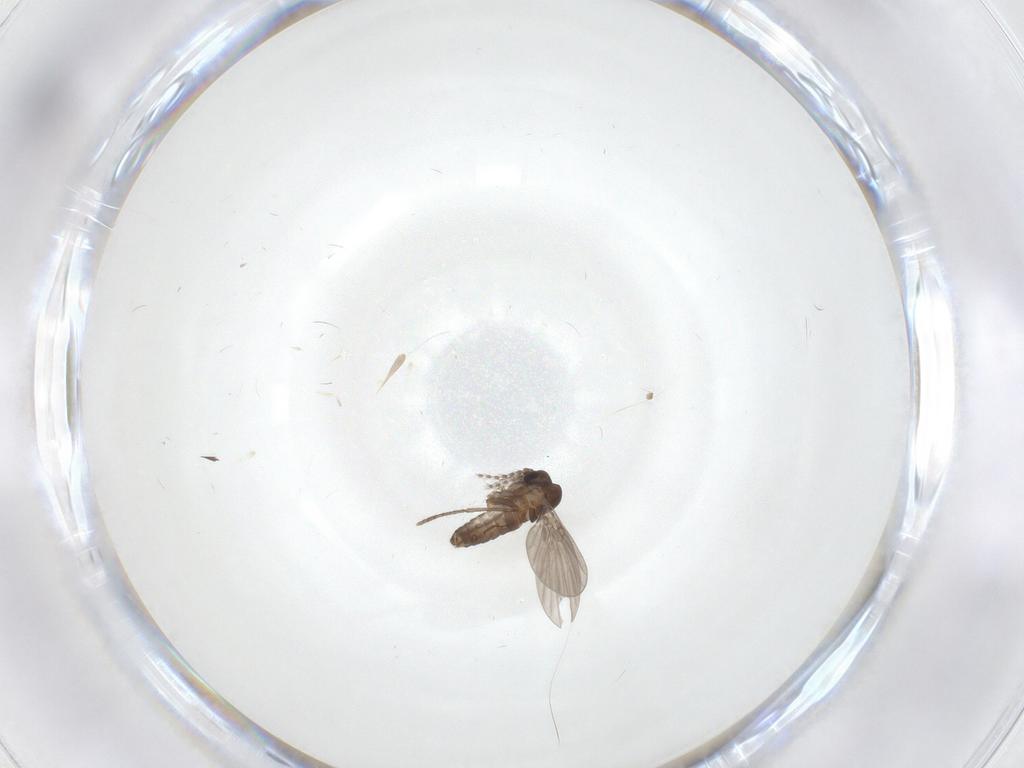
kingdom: Animalia
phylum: Arthropoda
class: Insecta
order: Diptera
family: Psychodidae
